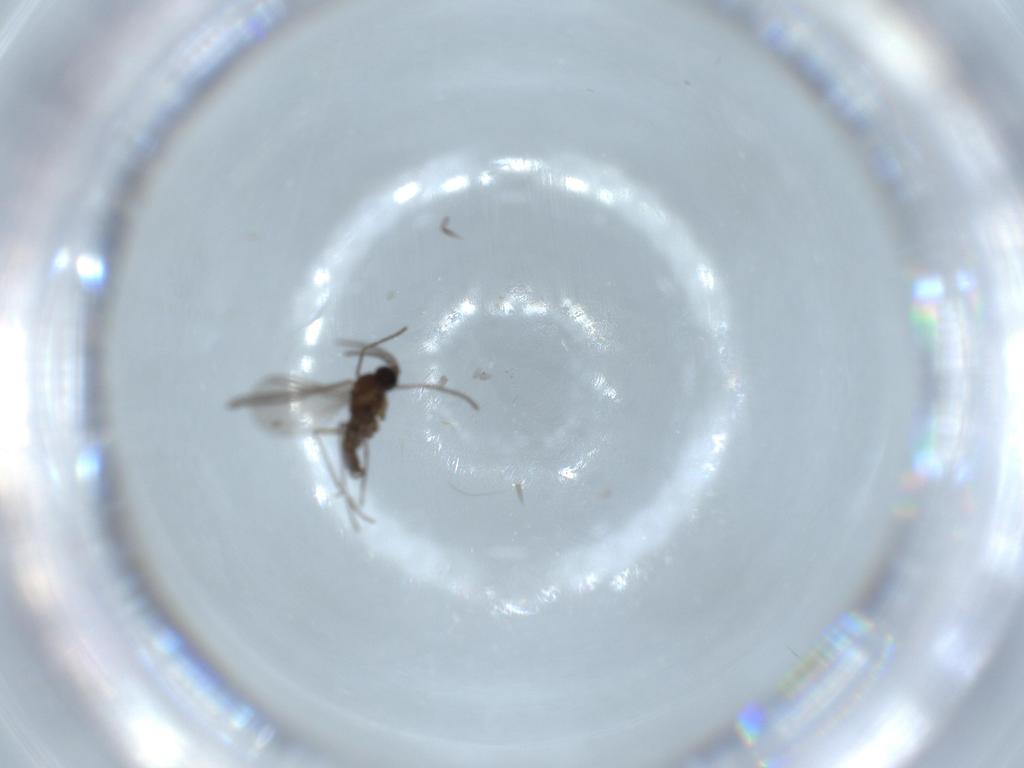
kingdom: Animalia
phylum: Arthropoda
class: Insecta
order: Diptera
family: Sciaridae
